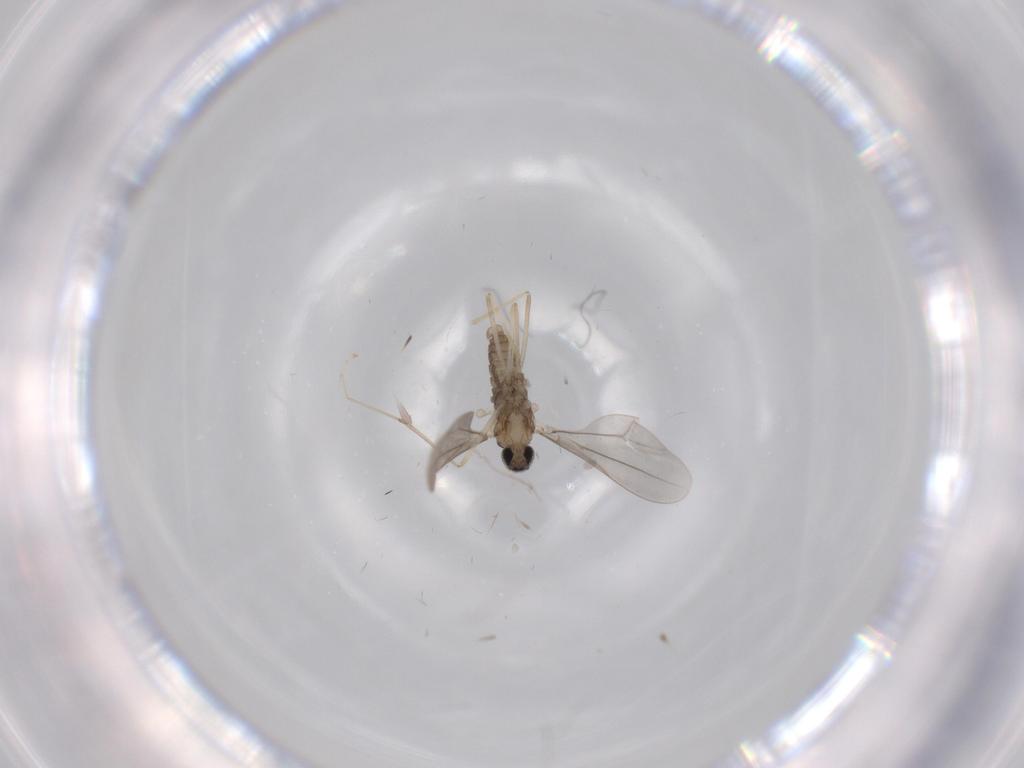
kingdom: Animalia
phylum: Arthropoda
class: Insecta
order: Diptera
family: Cecidomyiidae
